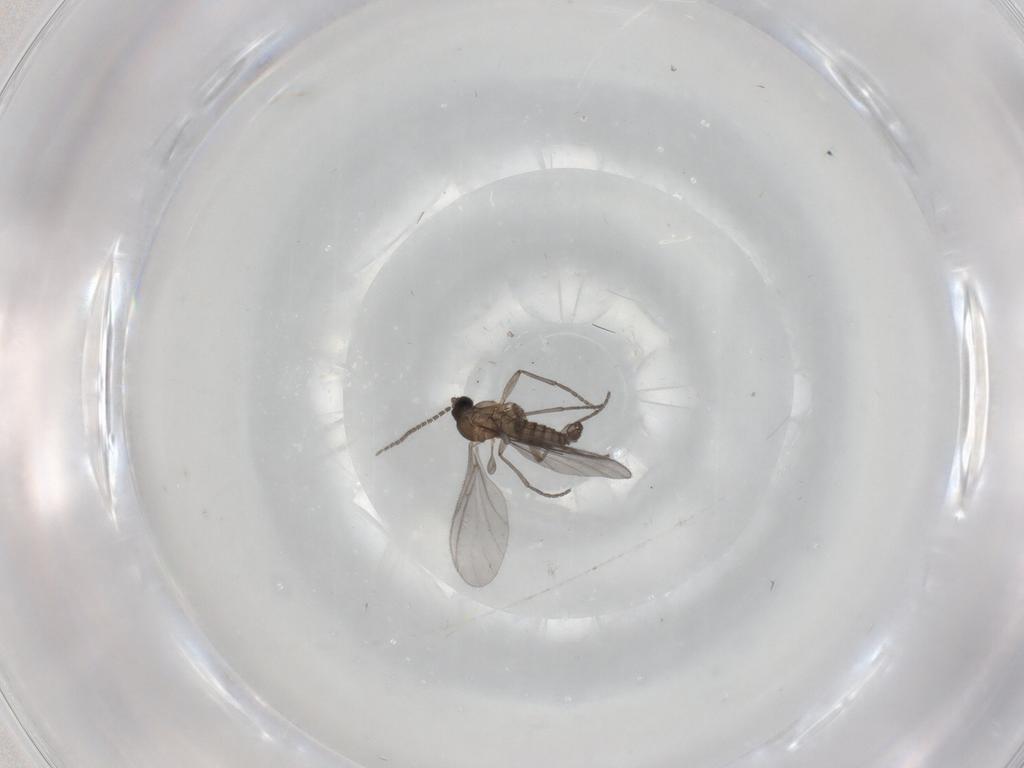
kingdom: Animalia
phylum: Arthropoda
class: Insecta
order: Diptera
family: Sciaridae
